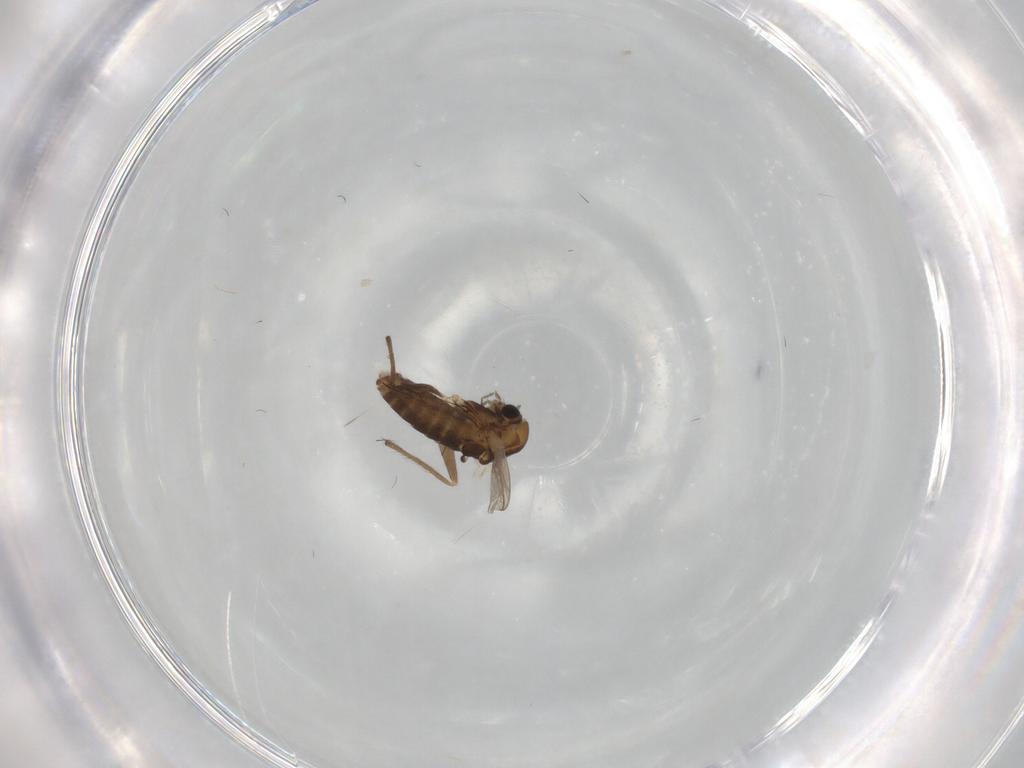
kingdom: Animalia
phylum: Arthropoda
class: Insecta
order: Diptera
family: Chironomidae
